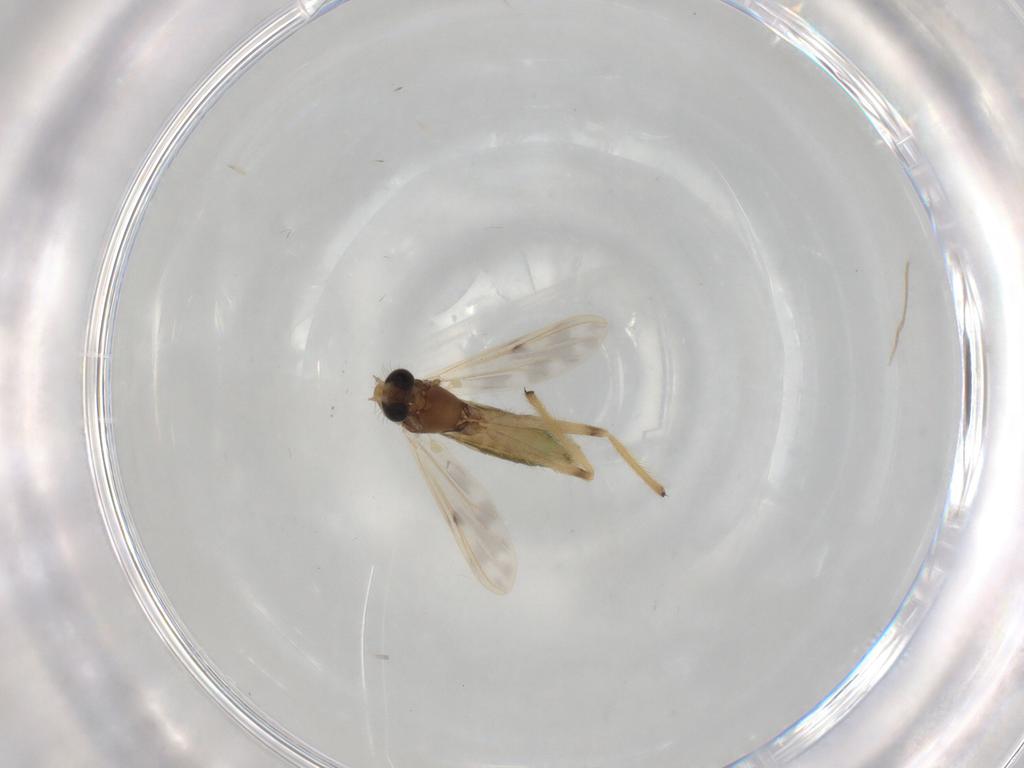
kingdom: Animalia
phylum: Arthropoda
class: Insecta
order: Diptera
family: Chironomidae
